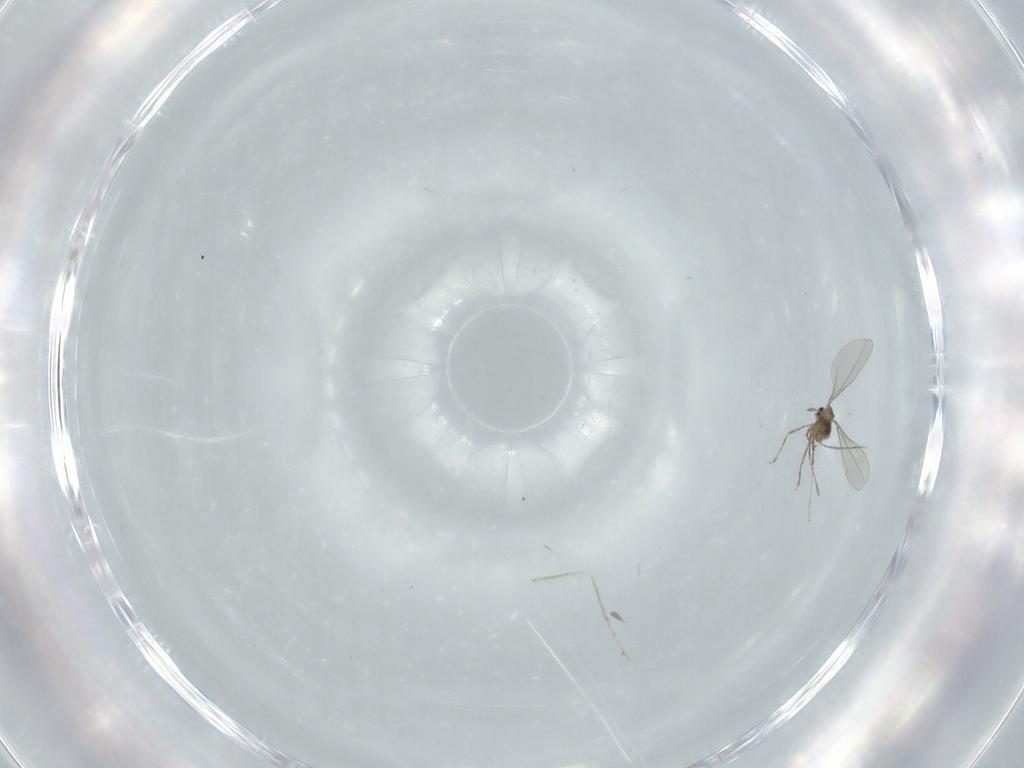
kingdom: Animalia
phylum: Arthropoda
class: Insecta
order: Diptera
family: Cecidomyiidae
